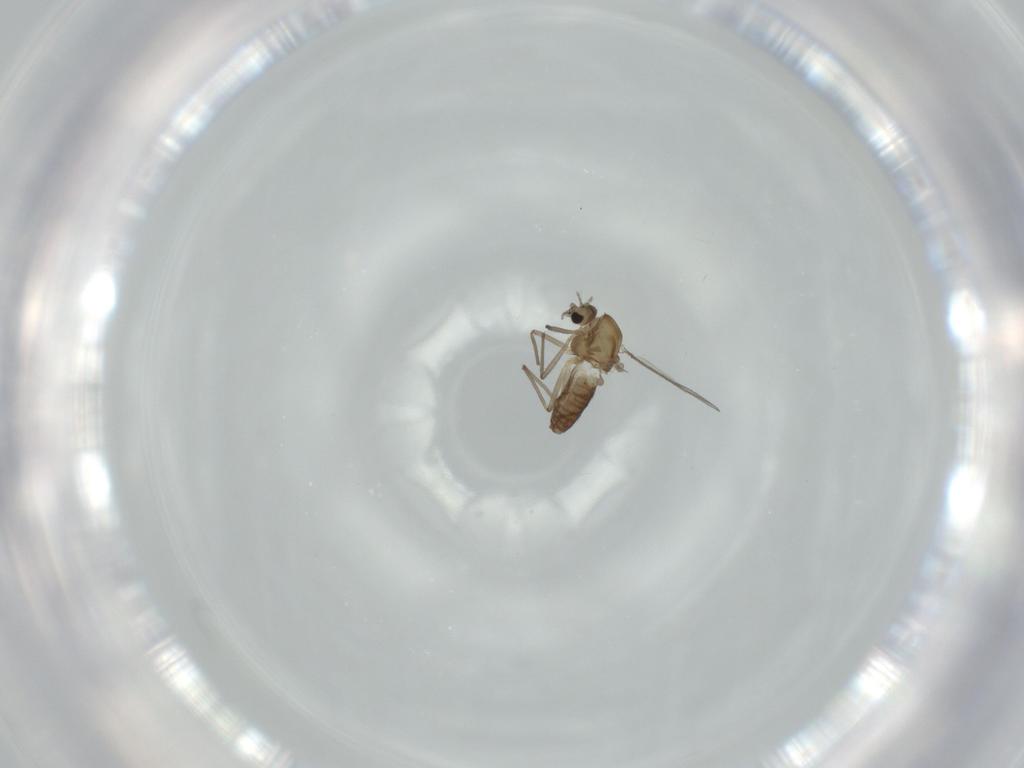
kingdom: Animalia
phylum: Arthropoda
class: Insecta
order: Diptera
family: Chironomidae
